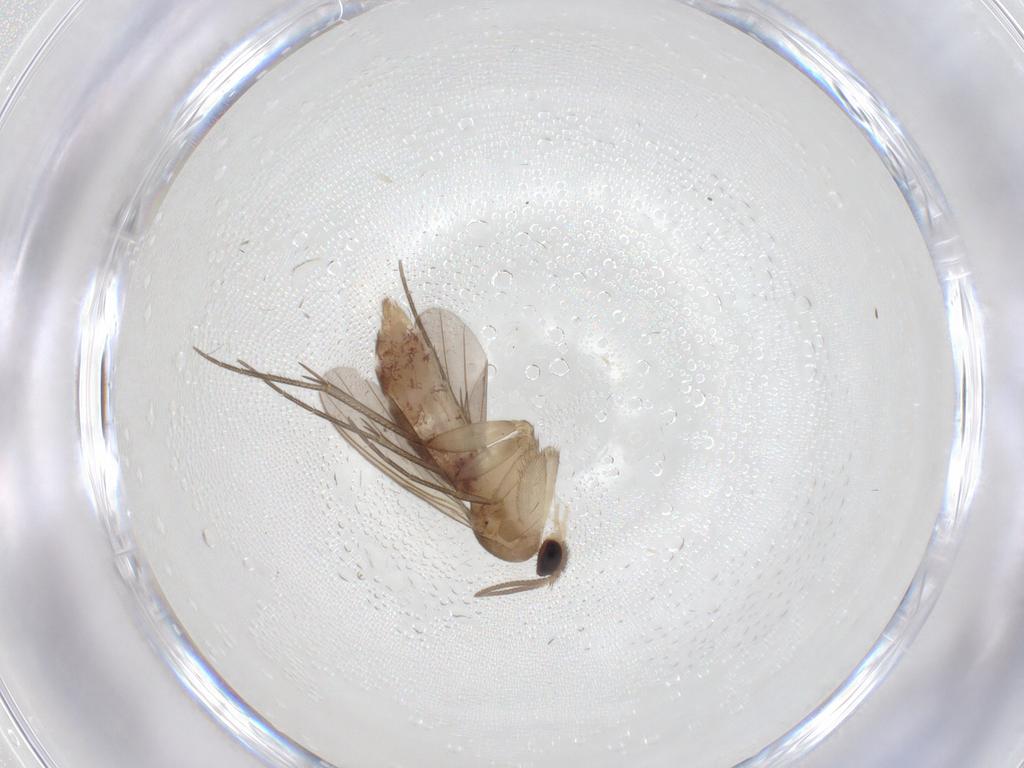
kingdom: Animalia
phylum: Arthropoda
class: Insecta
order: Diptera
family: Mycetophilidae
